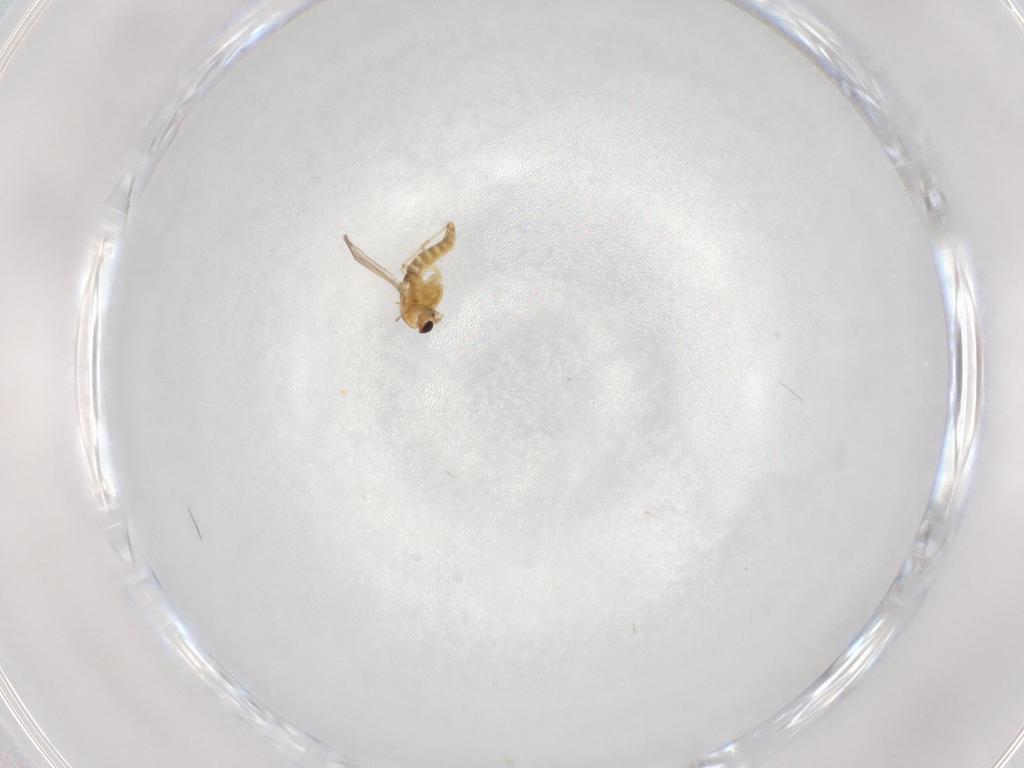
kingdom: Animalia
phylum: Arthropoda
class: Insecta
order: Diptera
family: Chironomidae
